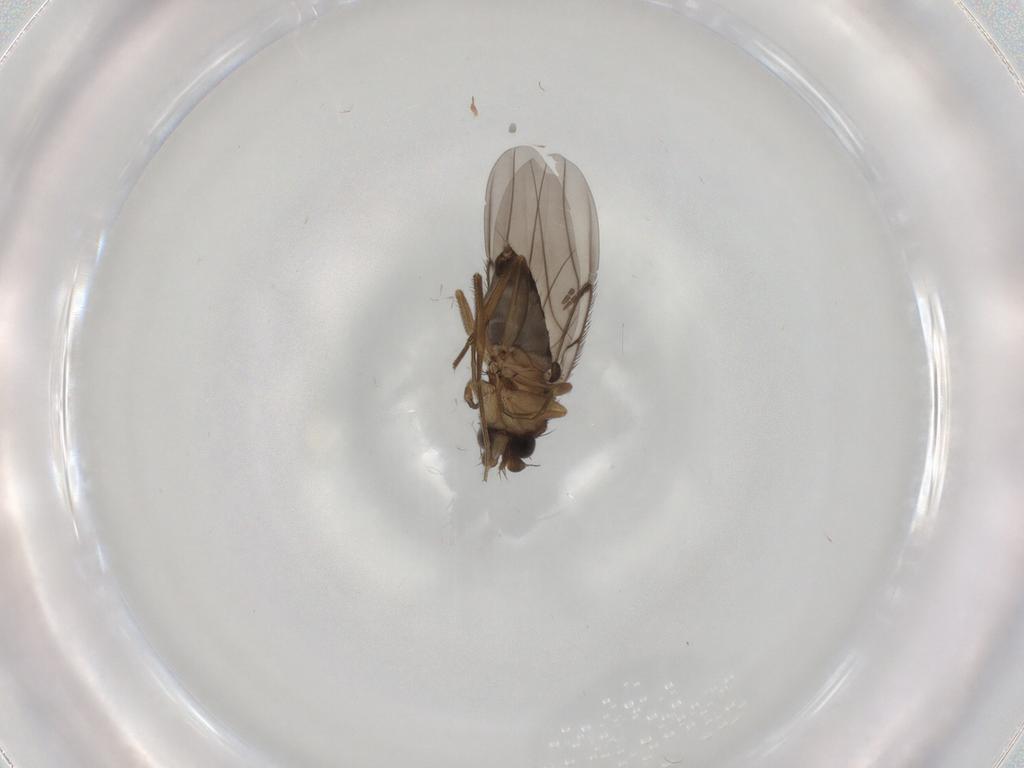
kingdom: Animalia
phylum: Arthropoda
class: Insecta
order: Diptera
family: Phoridae
